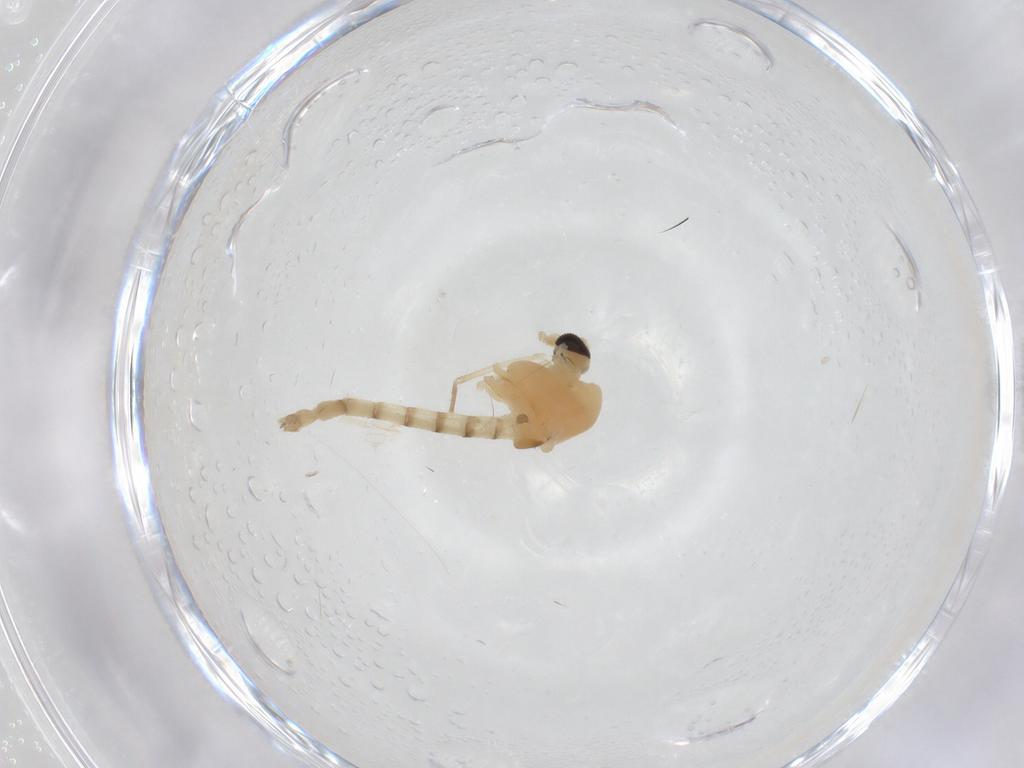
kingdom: Animalia
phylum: Arthropoda
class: Insecta
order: Diptera
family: Chironomidae
